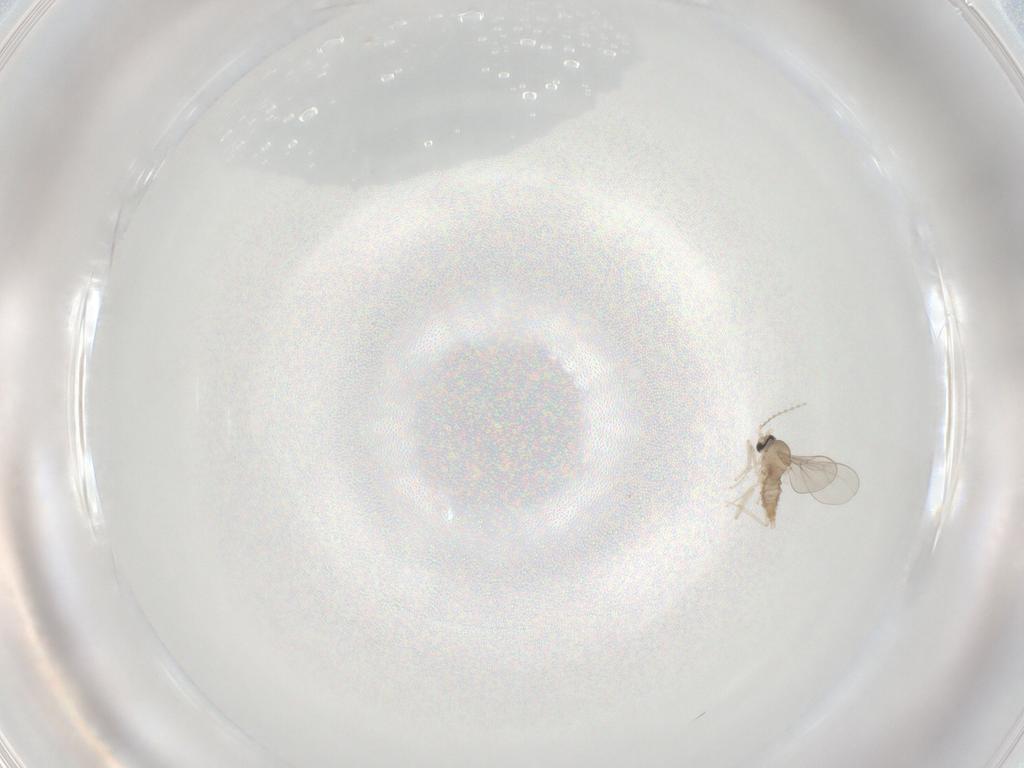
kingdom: Animalia
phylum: Arthropoda
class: Insecta
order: Diptera
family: Cecidomyiidae
